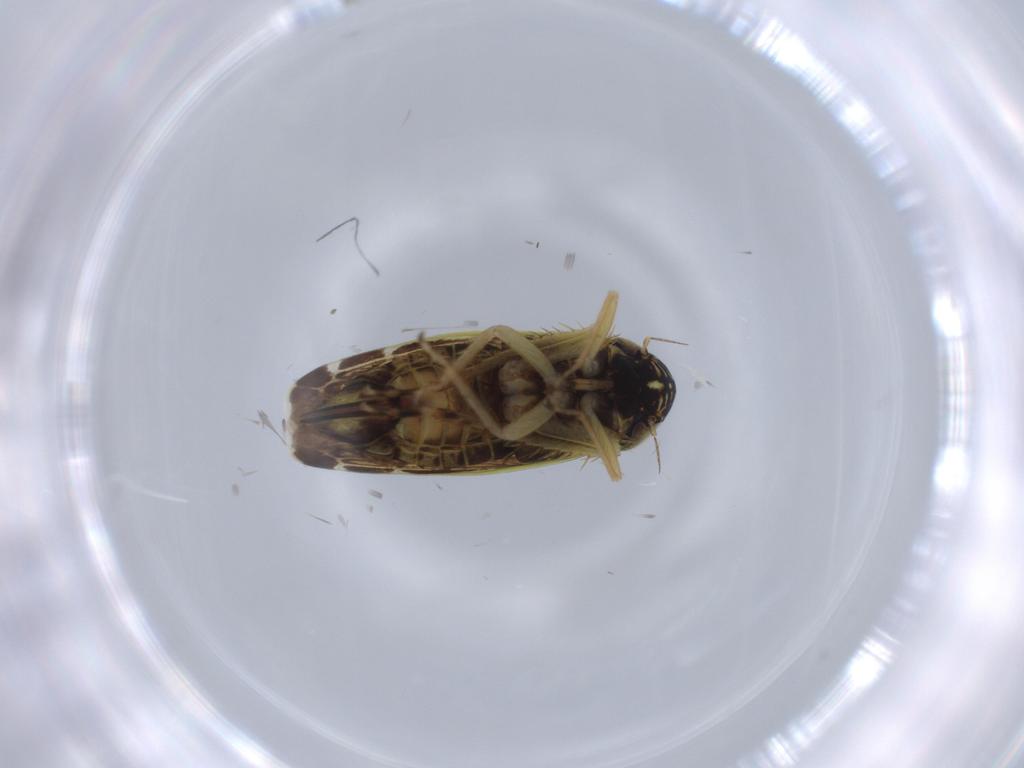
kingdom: Animalia
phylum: Arthropoda
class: Insecta
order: Hemiptera
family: Cicadellidae
